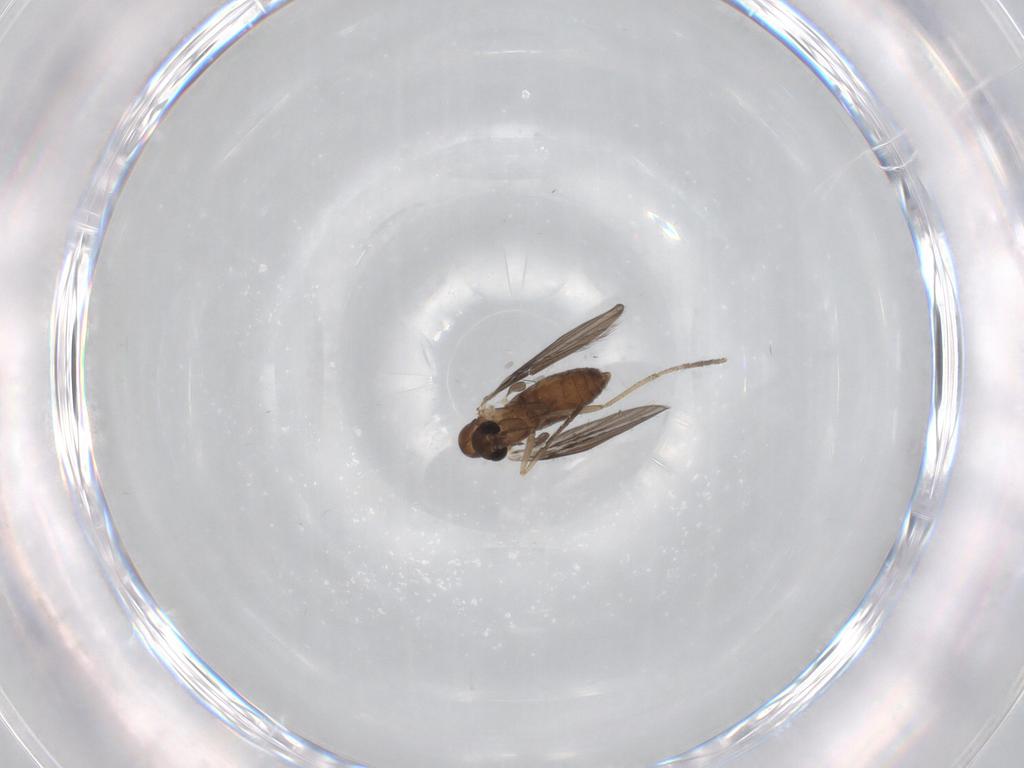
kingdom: Animalia
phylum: Arthropoda
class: Insecta
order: Diptera
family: Psychodidae
